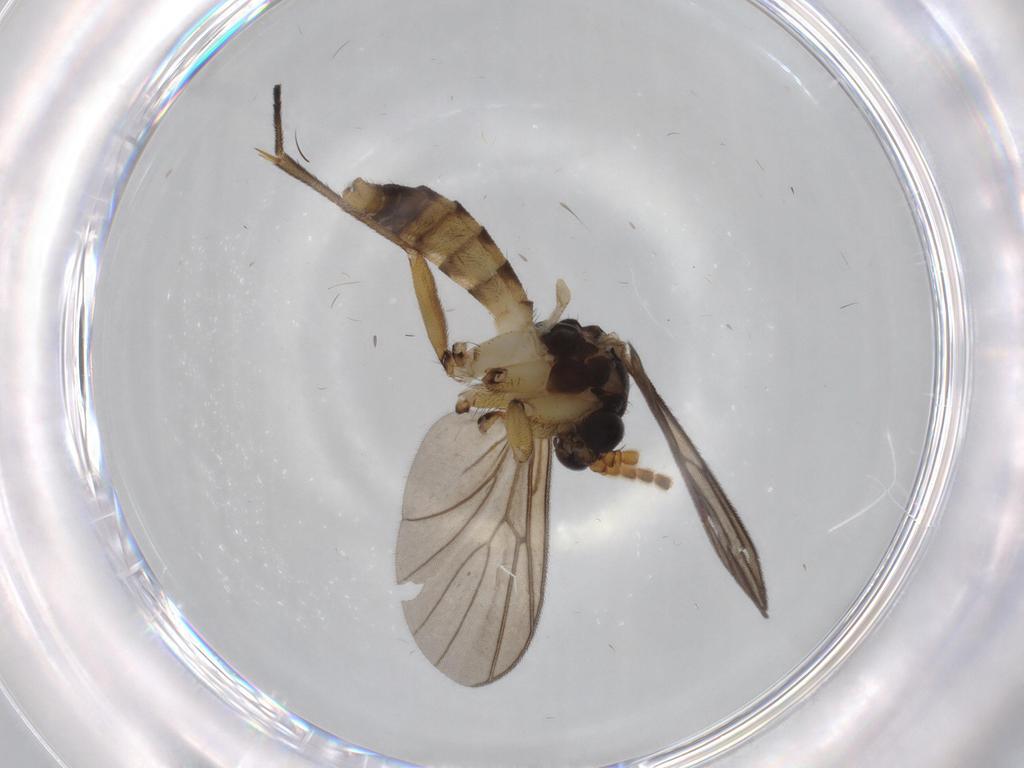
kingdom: Animalia
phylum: Arthropoda
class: Insecta
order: Diptera
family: Phoridae
